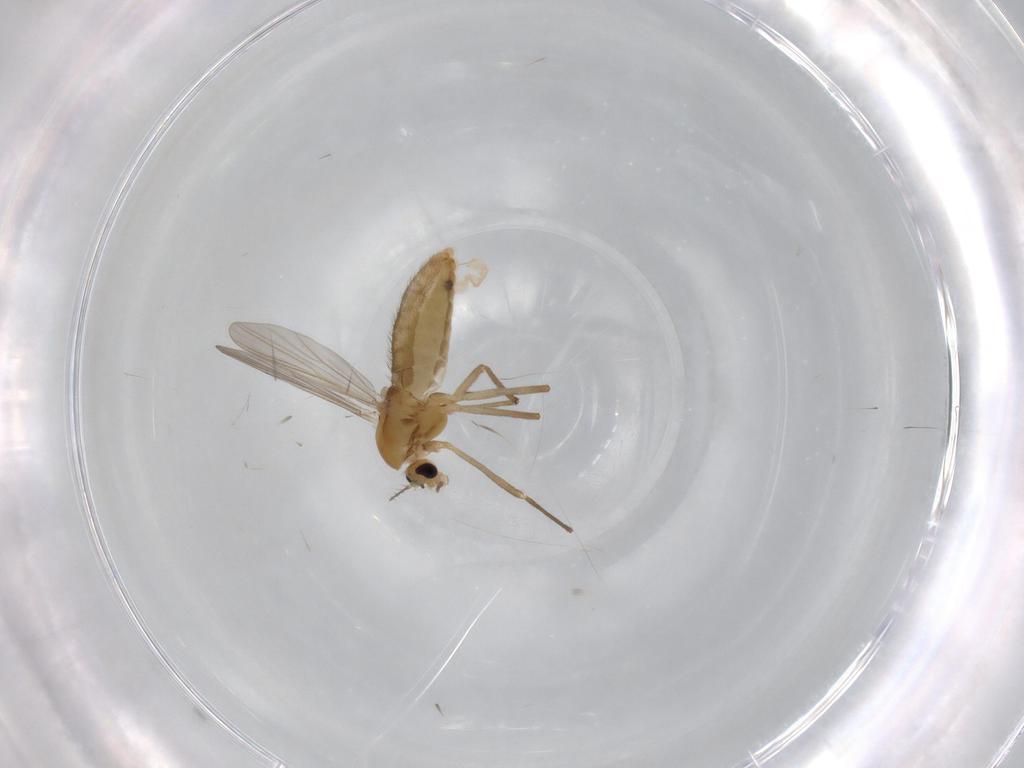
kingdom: Animalia
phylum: Arthropoda
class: Insecta
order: Diptera
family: Chironomidae
